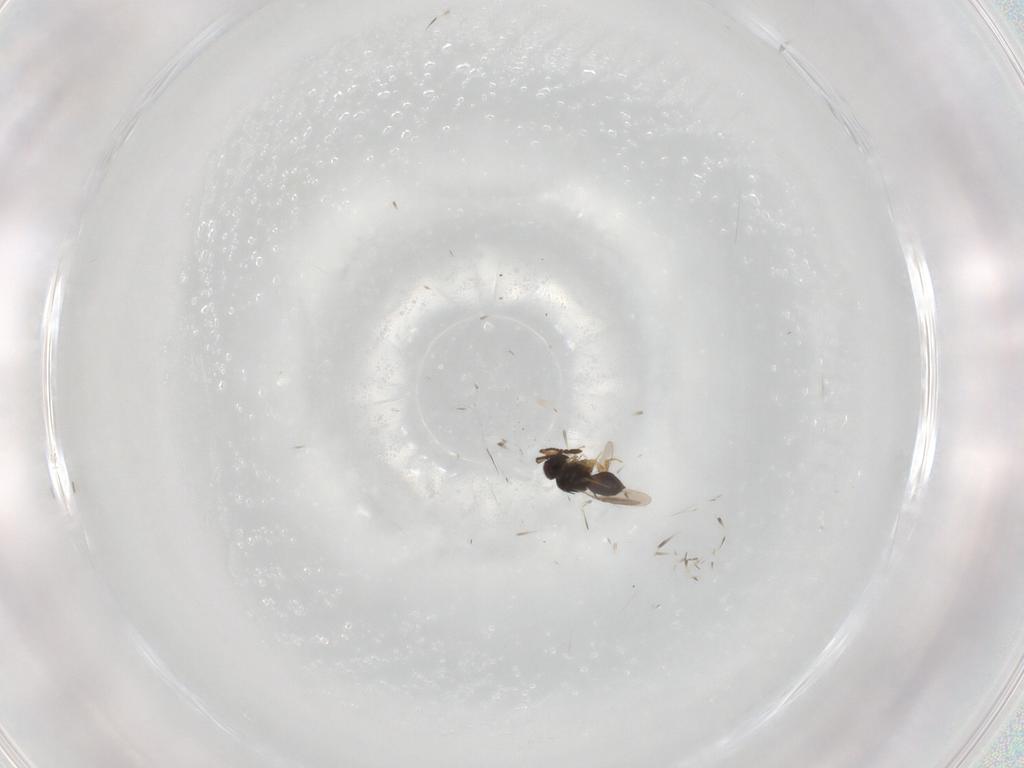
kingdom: Animalia
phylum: Arthropoda
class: Insecta
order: Hymenoptera
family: Scelionidae
